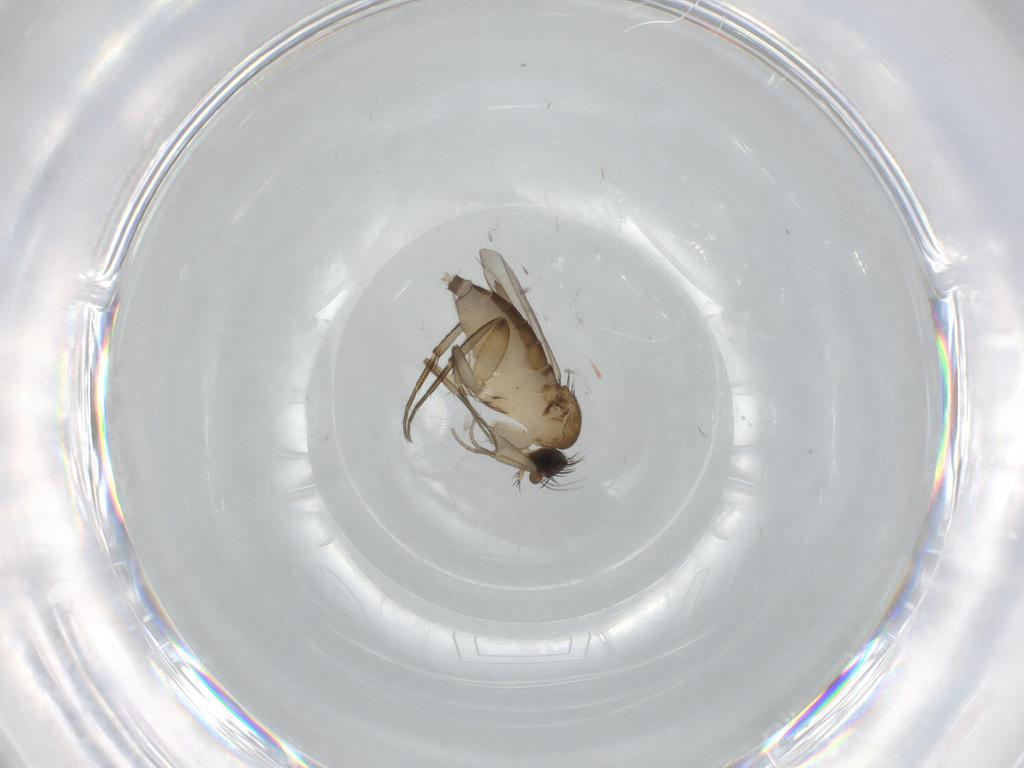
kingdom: Animalia
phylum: Arthropoda
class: Insecta
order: Diptera
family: Phoridae
